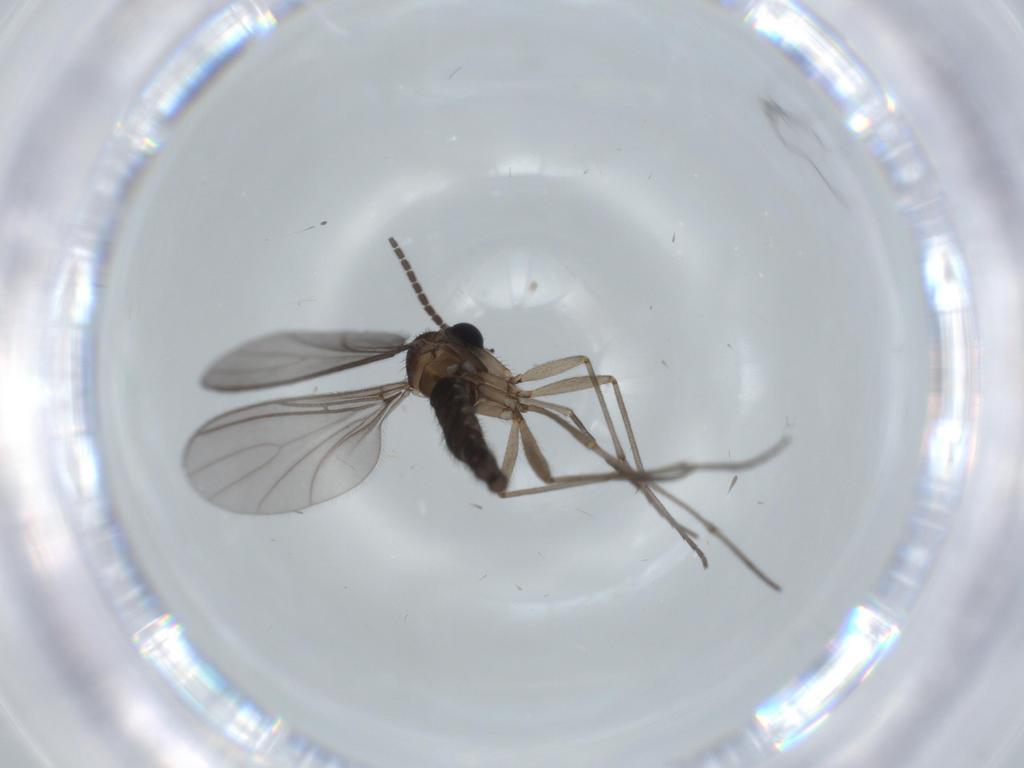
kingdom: Animalia
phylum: Arthropoda
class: Insecta
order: Diptera
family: Sciaridae
